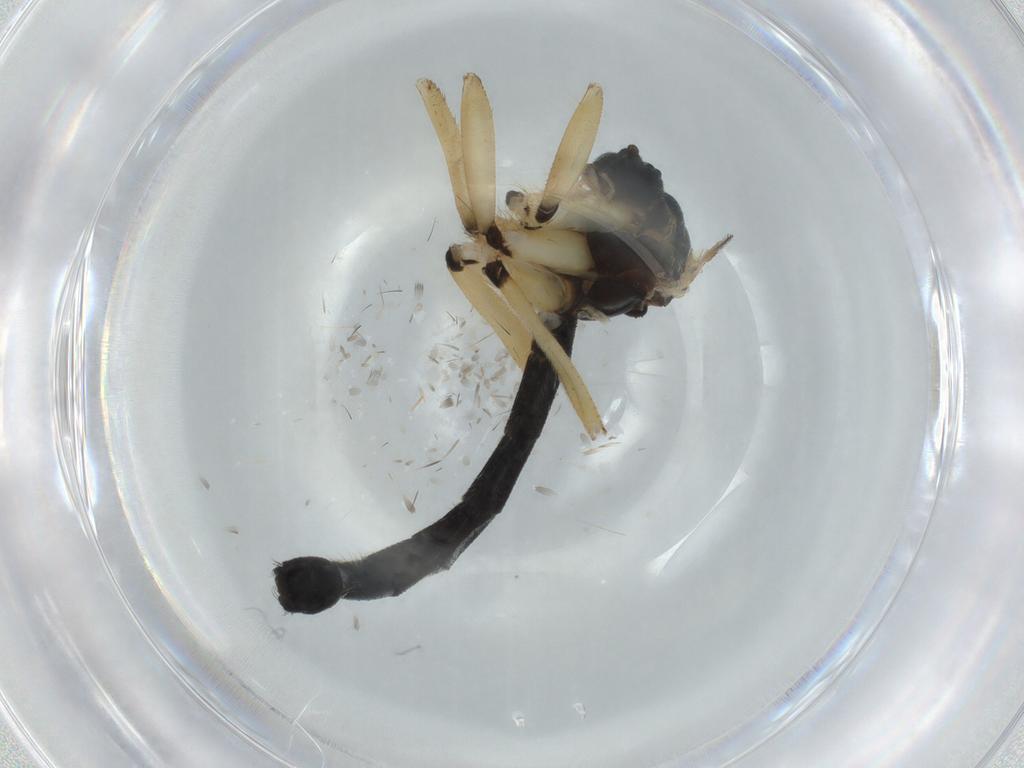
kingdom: Animalia
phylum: Arthropoda
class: Insecta
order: Diptera
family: Mycetophilidae
